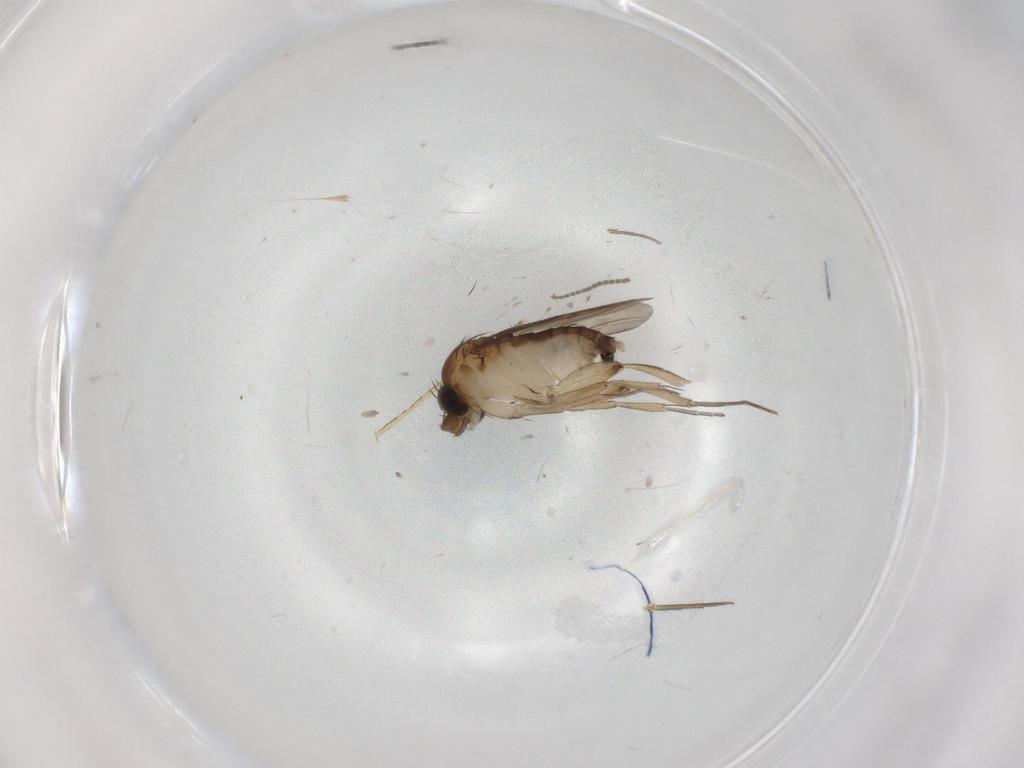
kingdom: Animalia
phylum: Arthropoda
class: Insecta
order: Diptera
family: Phoridae
